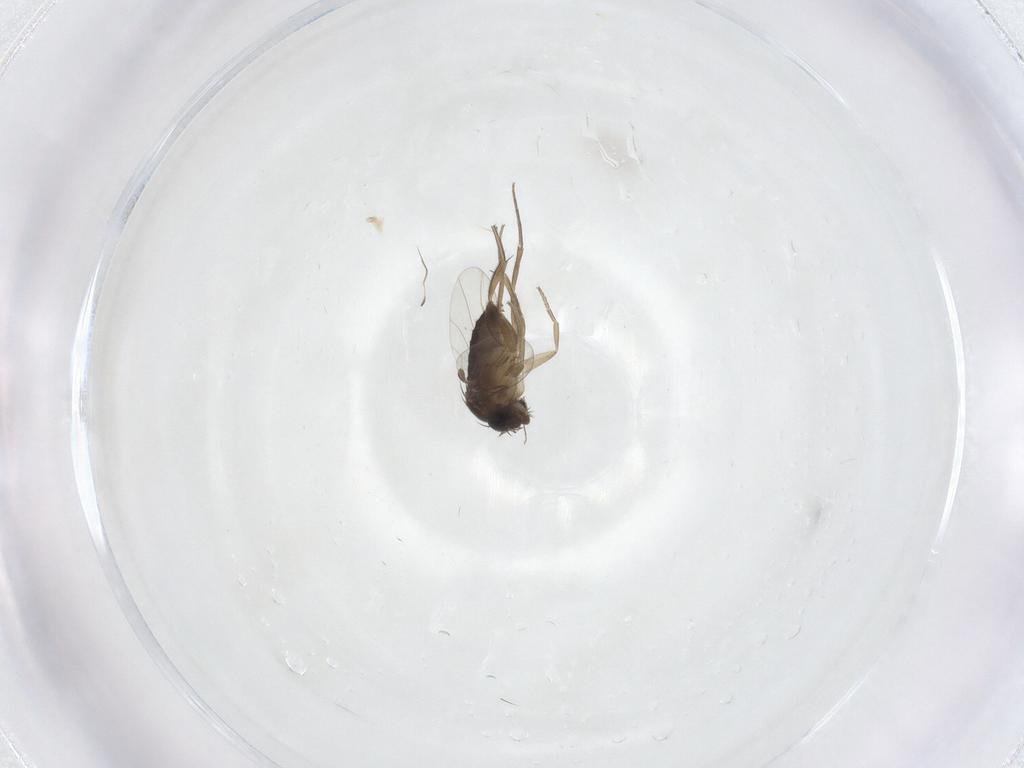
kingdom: Animalia
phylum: Arthropoda
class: Insecta
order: Diptera
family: Phoridae
